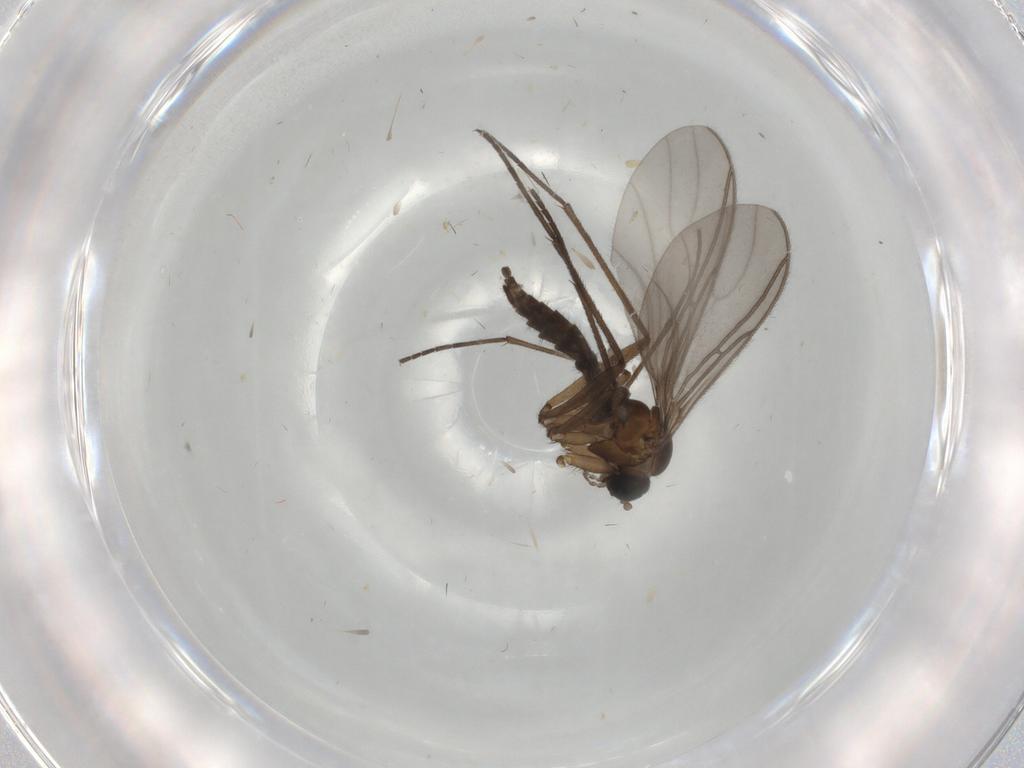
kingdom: Animalia
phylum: Arthropoda
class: Insecta
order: Diptera
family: Sciaridae
